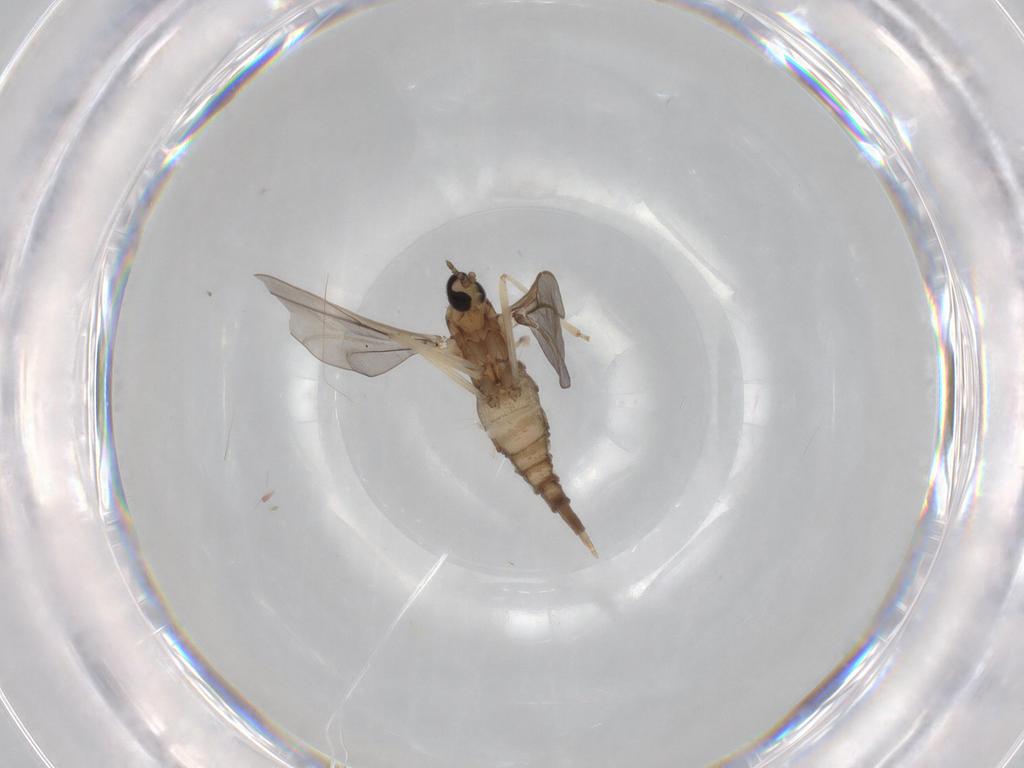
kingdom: Animalia
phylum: Arthropoda
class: Insecta
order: Diptera
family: Cecidomyiidae
